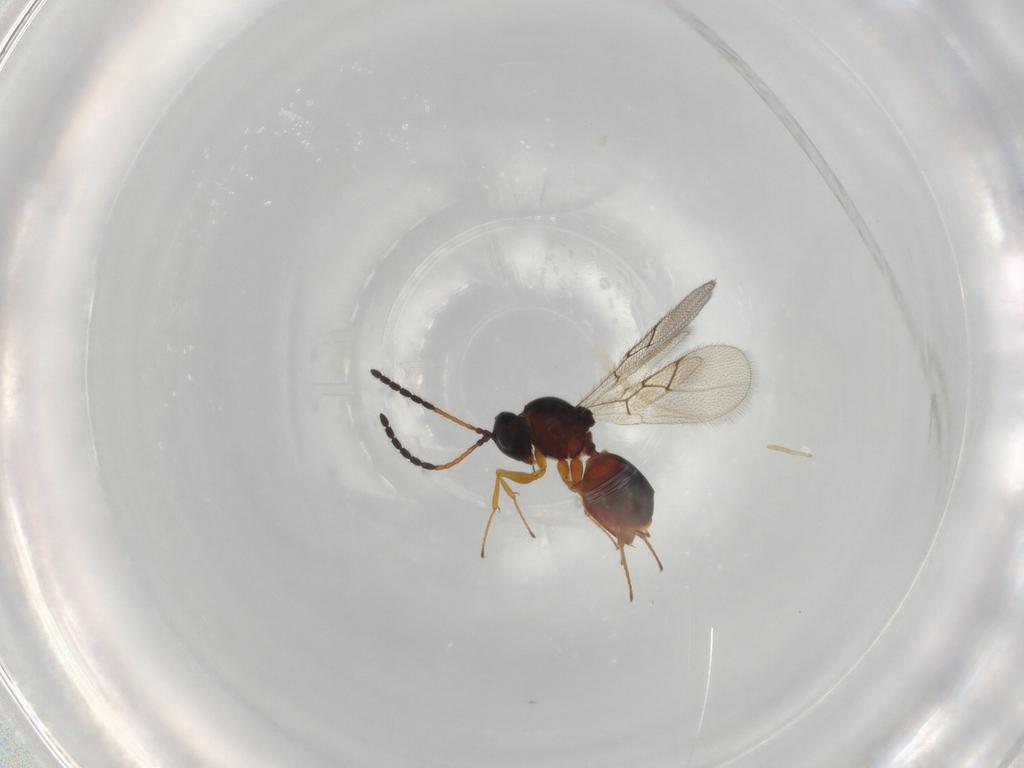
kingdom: Animalia
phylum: Arthropoda
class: Insecta
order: Hymenoptera
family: Figitidae
